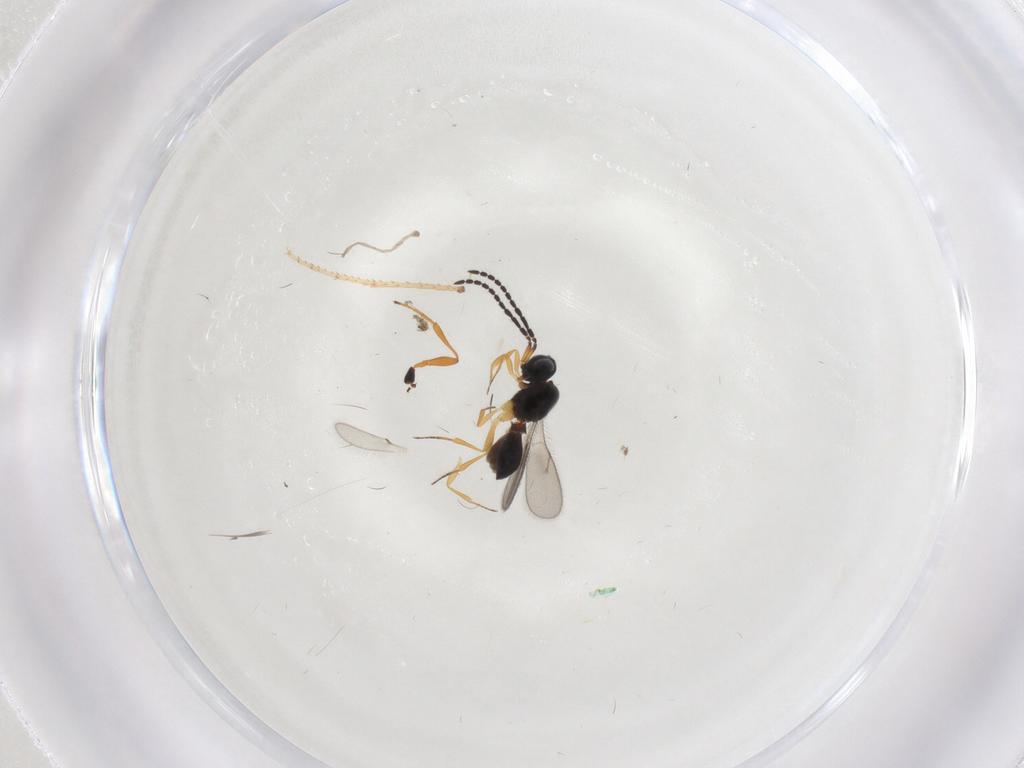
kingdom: Animalia
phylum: Arthropoda
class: Insecta
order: Hymenoptera
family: Scelionidae
